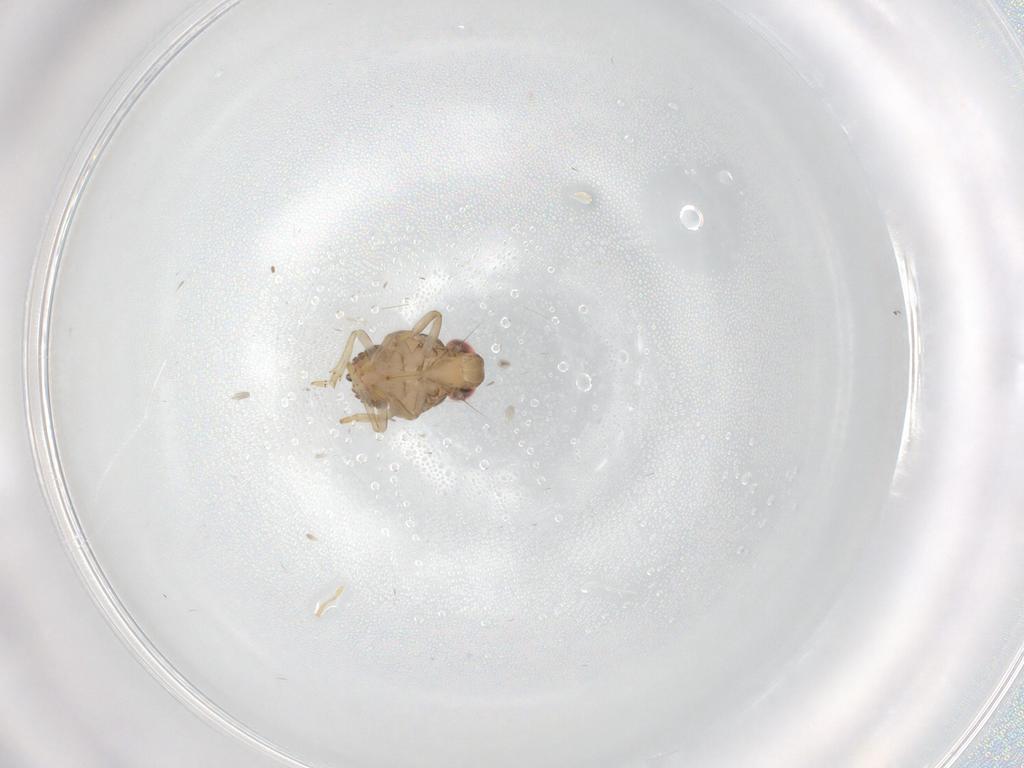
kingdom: Animalia
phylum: Arthropoda
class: Insecta
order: Hemiptera
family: Issidae
